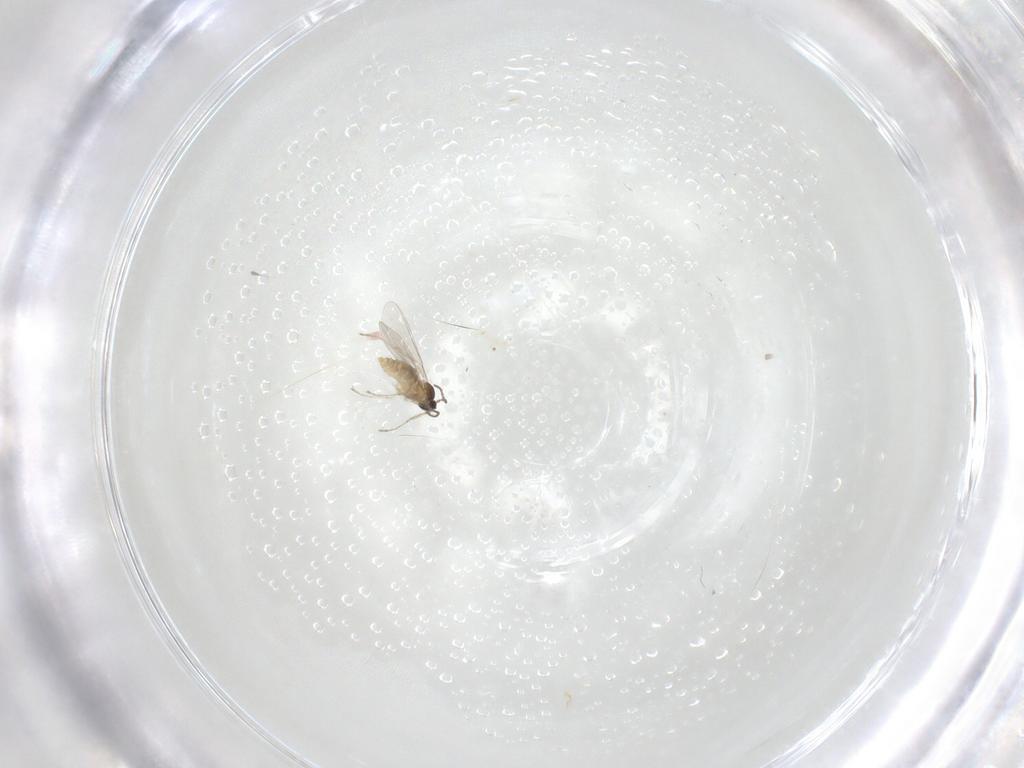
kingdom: Animalia
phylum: Arthropoda
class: Insecta
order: Diptera
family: Cecidomyiidae
